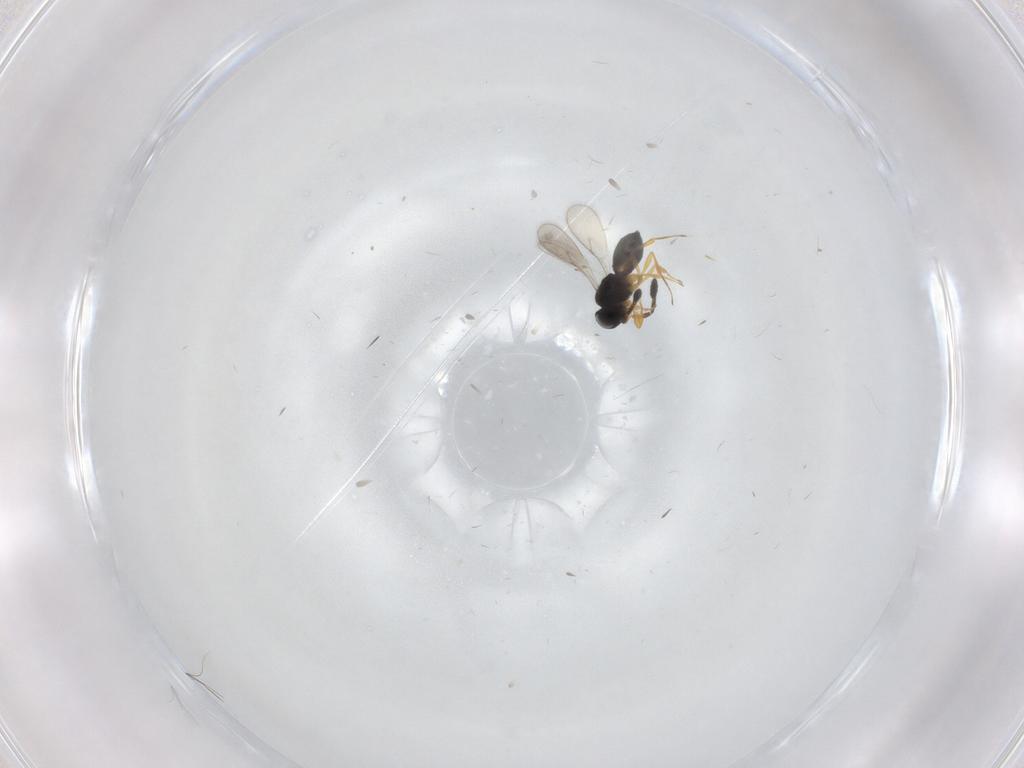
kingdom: Animalia
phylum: Arthropoda
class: Insecta
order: Hymenoptera
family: Scelionidae
